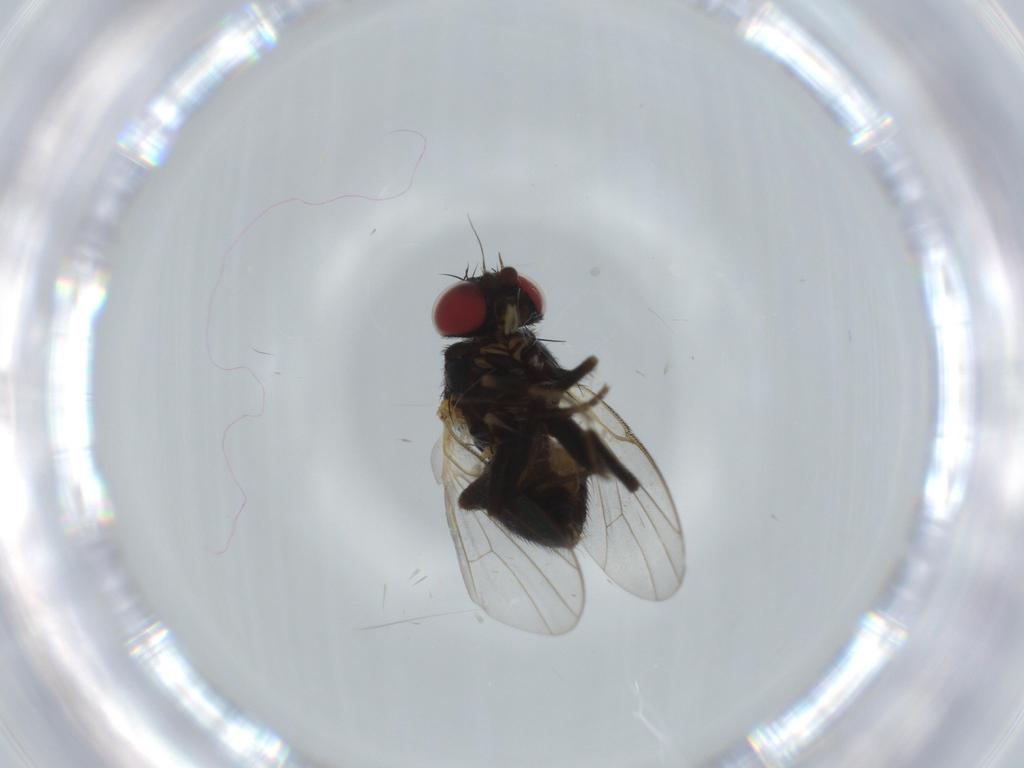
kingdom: Animalia
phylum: Arthropoda
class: Insecta
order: Diptera
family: Agromyzidae
